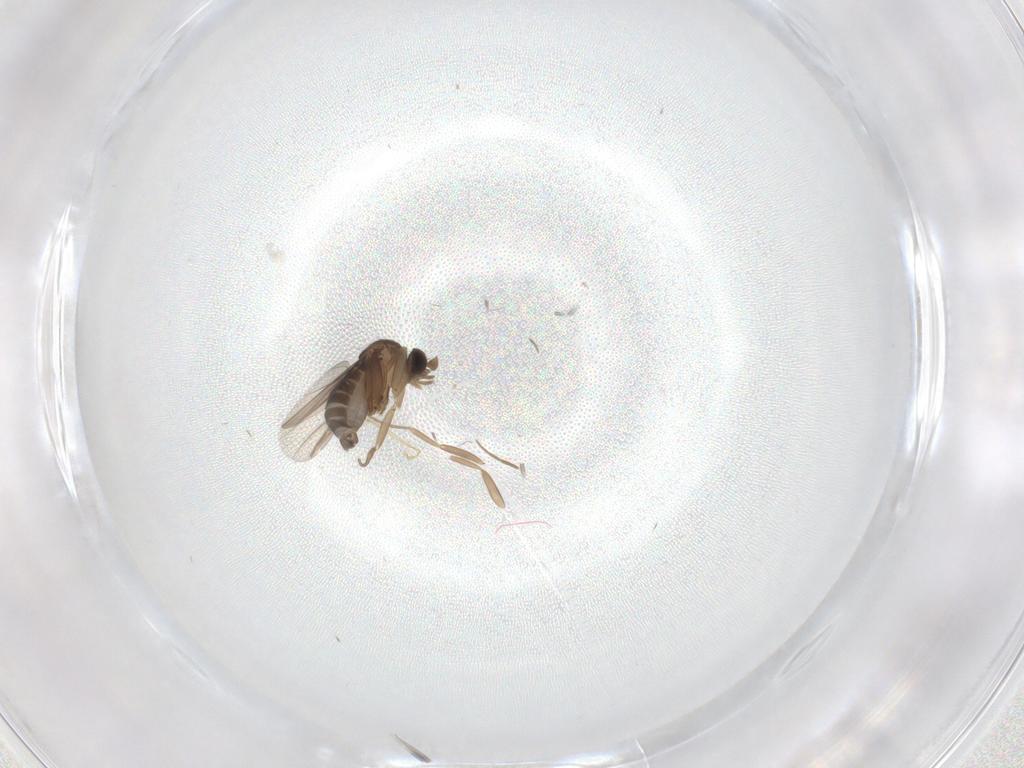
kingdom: Animalia
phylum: Arthropoda
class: Insecta
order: Diptera
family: Phoridae
